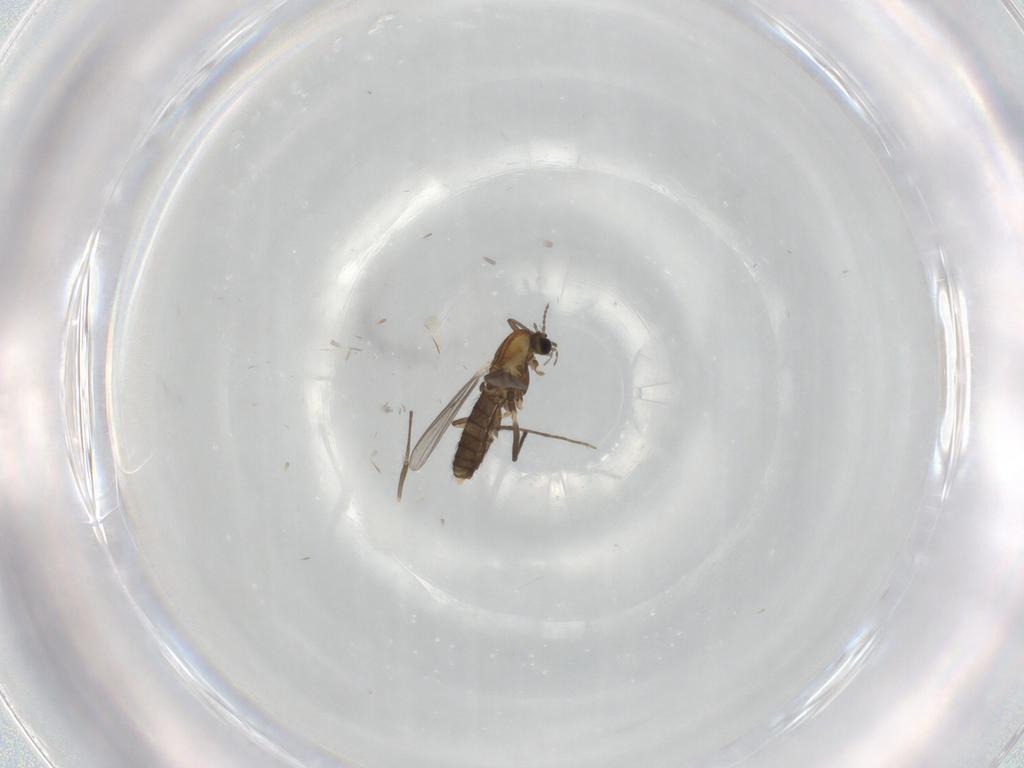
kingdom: Animalia
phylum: Arthropoda
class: Insecta
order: Diptera
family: Chironomidae
